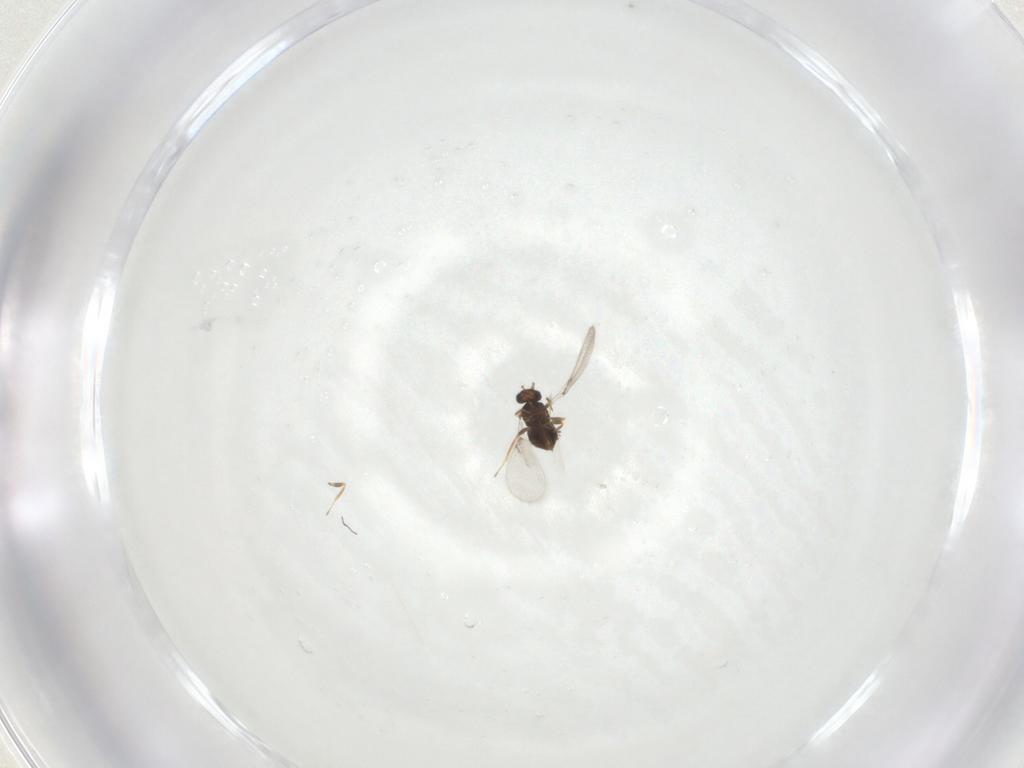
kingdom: Animalia
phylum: Arthropoda
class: Insecta
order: Hymenoptera
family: Trichogrammatidae
